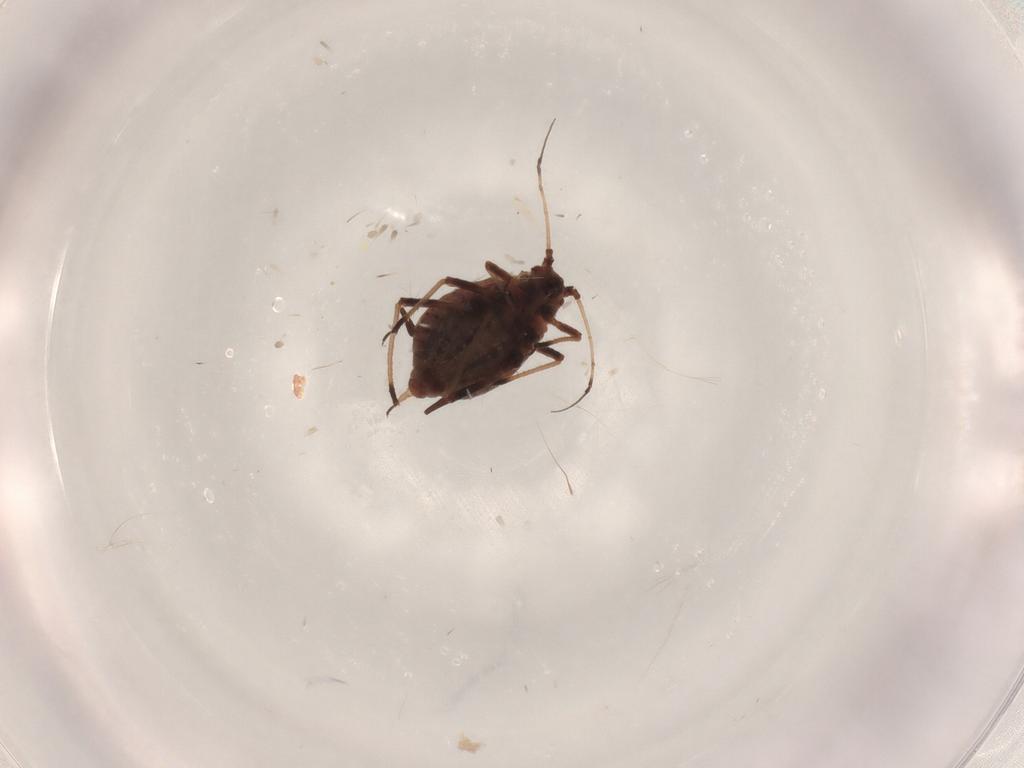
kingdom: Animalia
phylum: Arthropoda
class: Insecta
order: Hemiptera
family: Aphididae
